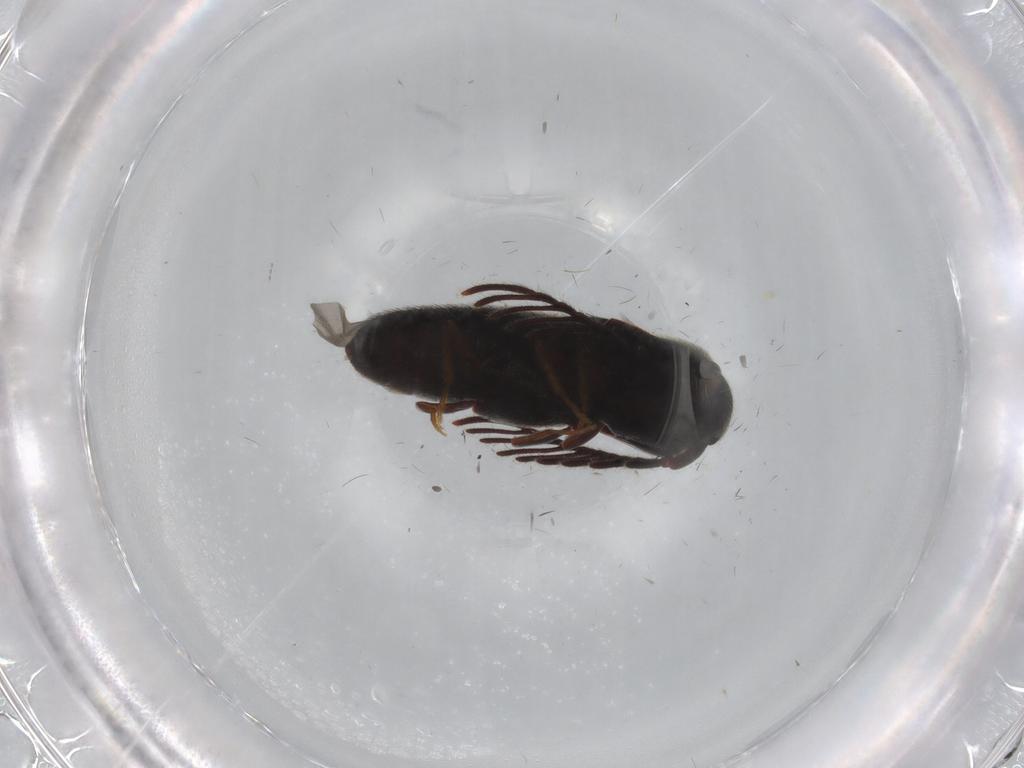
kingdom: Animalia
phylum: Arthropoda
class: Insecta
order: Coleoptera
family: Eucnemidae
